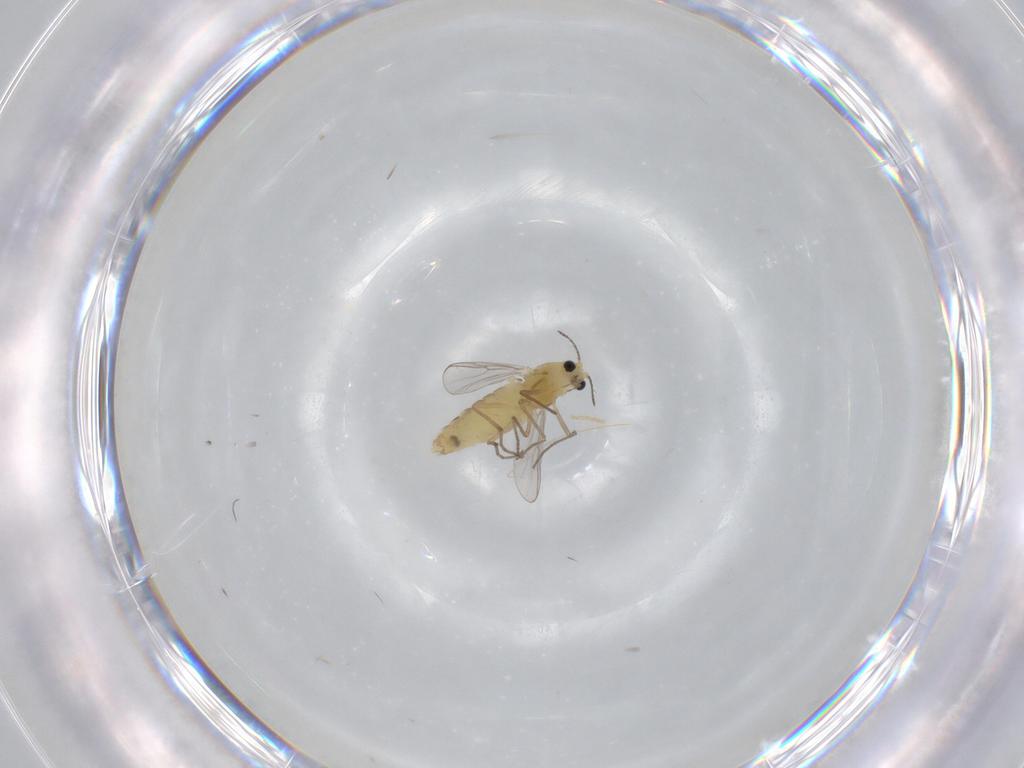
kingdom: Animalia
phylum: Arthropoda
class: Insecta
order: Diptera
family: Chironomidae
